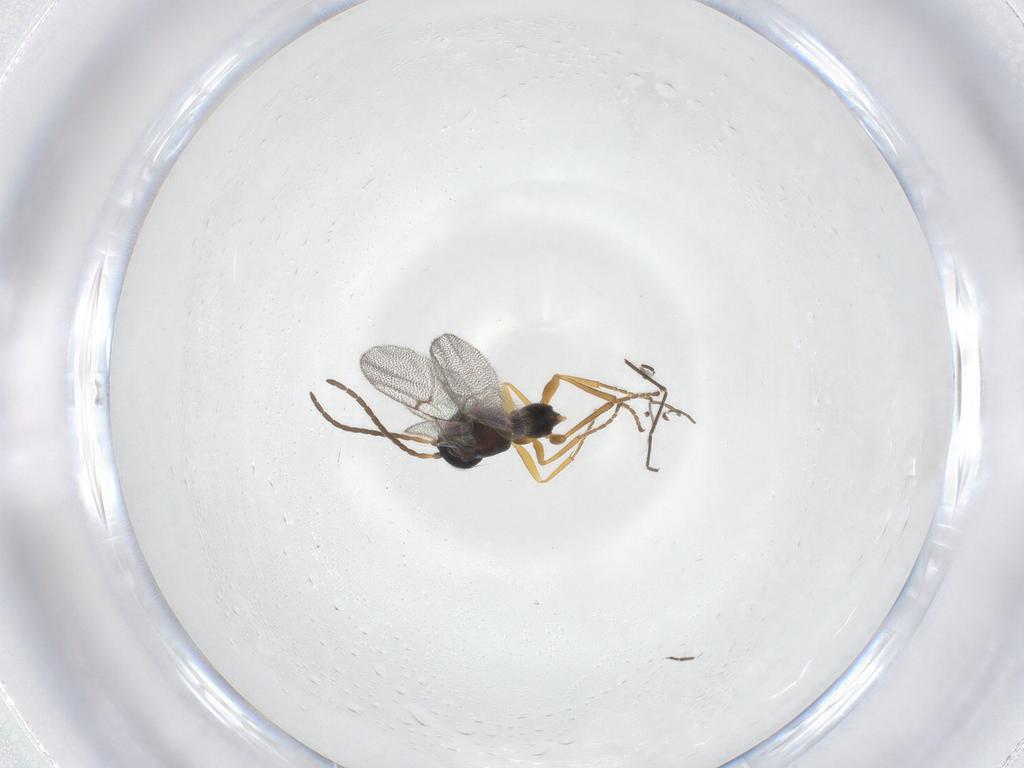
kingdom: Animalia
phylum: Arthropoda
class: Insecta
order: Hymenoptera
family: Cynipidae
